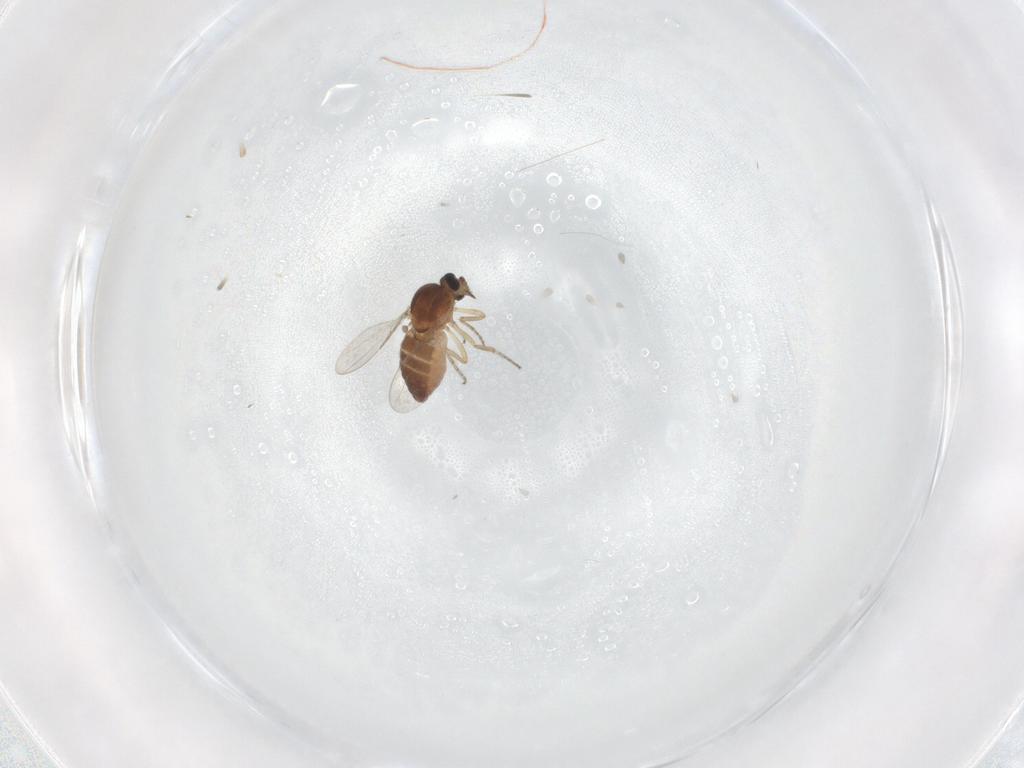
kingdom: Animalia
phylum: Arthropoda
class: Insecta
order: Diptera
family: Ceratopogonidae
